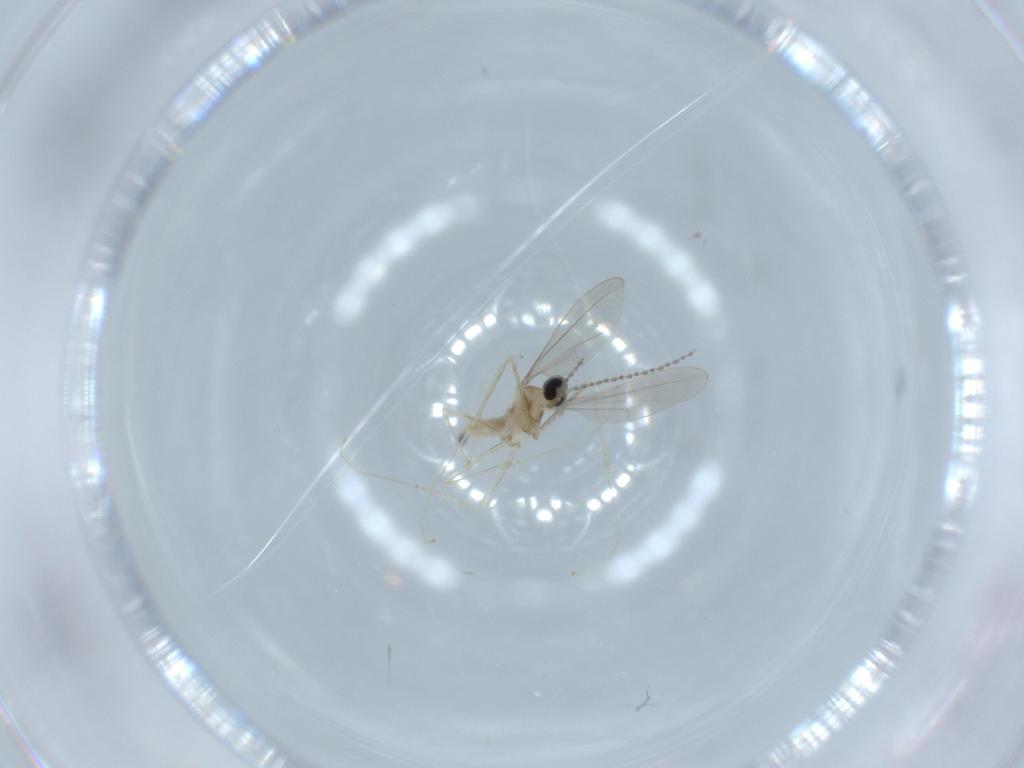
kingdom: Animalia
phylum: Arthropoda
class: Insecta
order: Diptera
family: Cecidomyiidae
